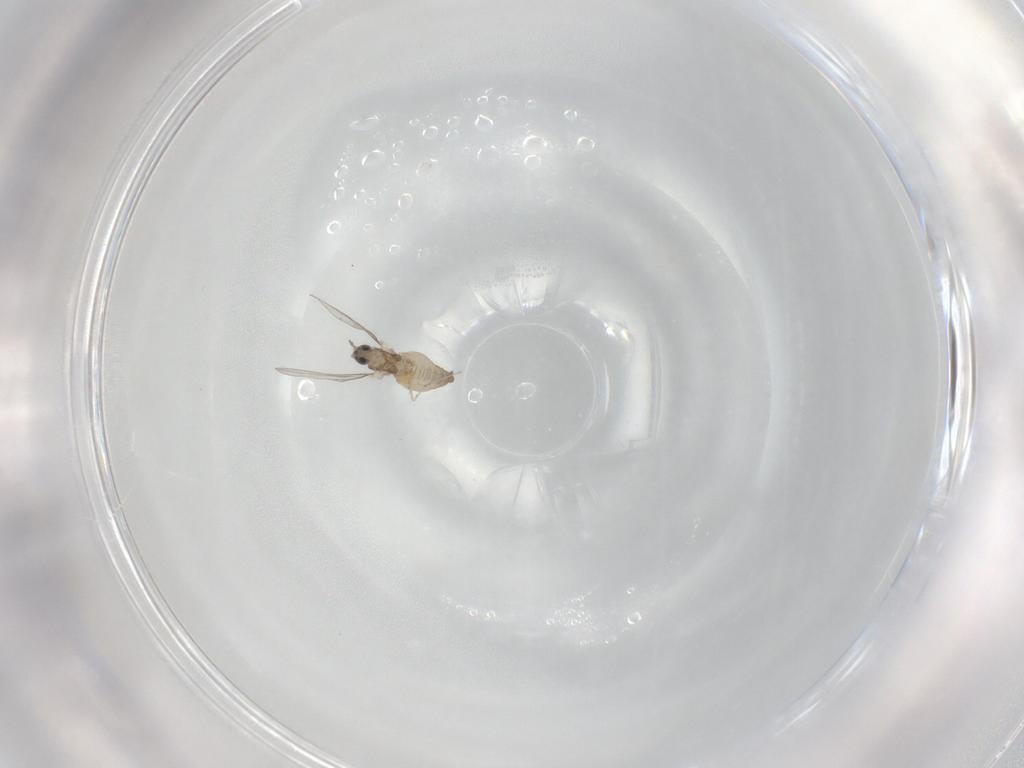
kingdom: Animalia
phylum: Arthropoda
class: Insecta
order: Diptera
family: Cecidomyiidae
